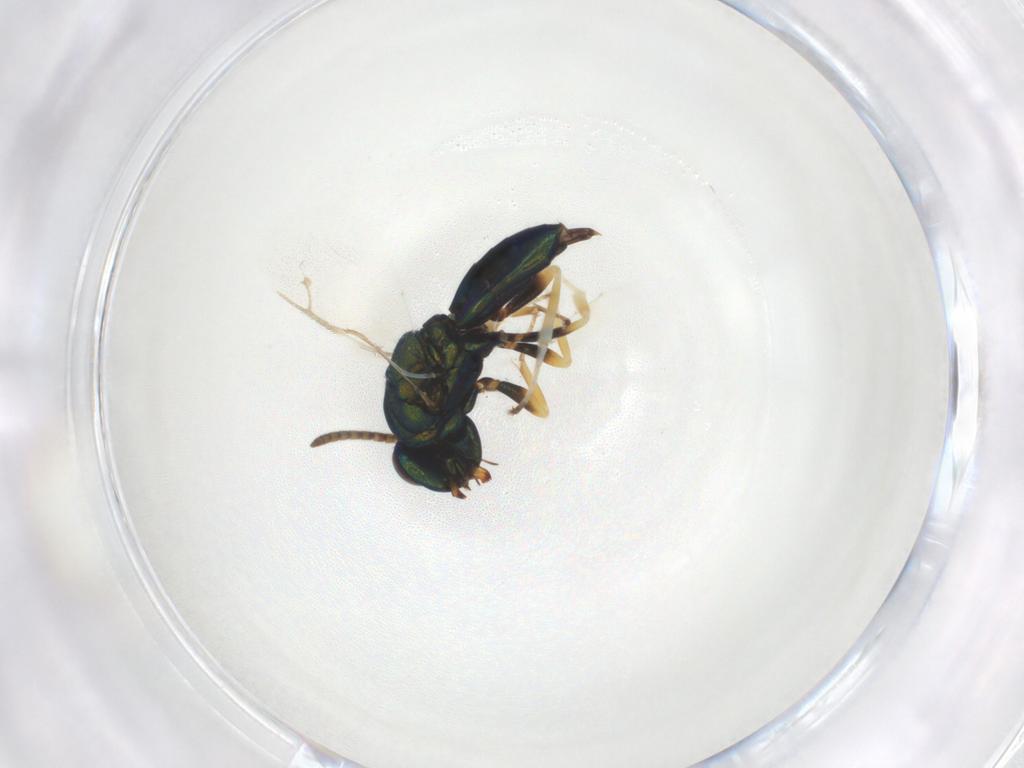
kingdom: Animalia
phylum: Arthropoda
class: Insecta
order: Hymenoptera
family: Pteromalidae
